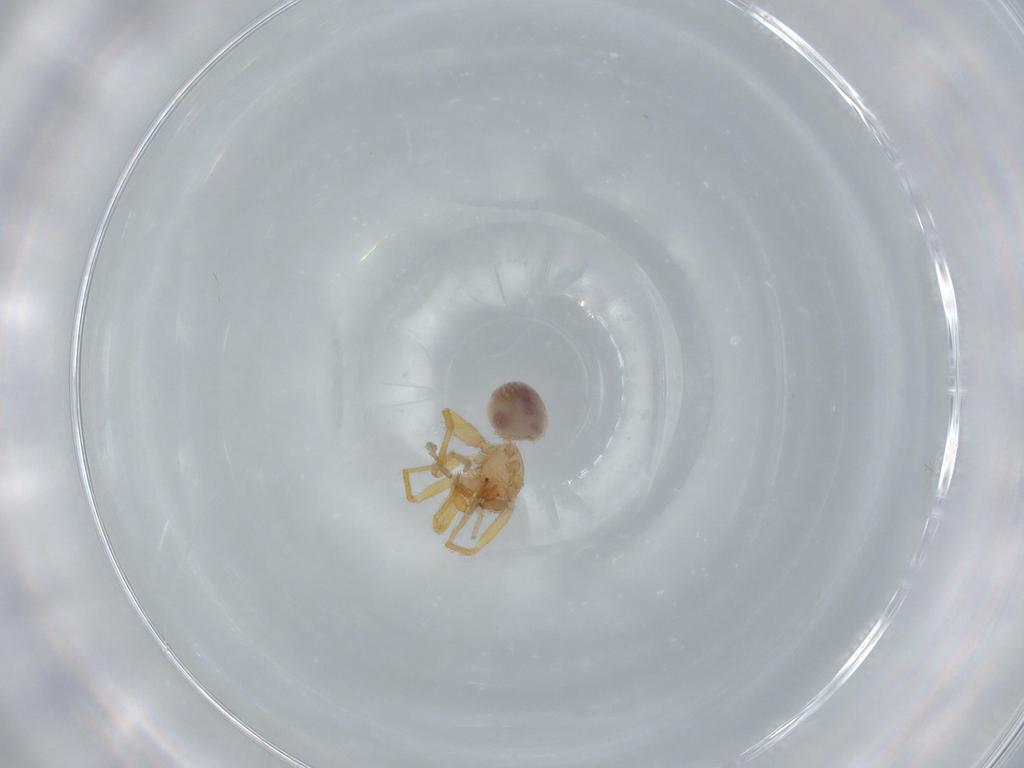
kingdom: Animalia
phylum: Arthropoda
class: Arachnida
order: Araneae
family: Oonopidae
